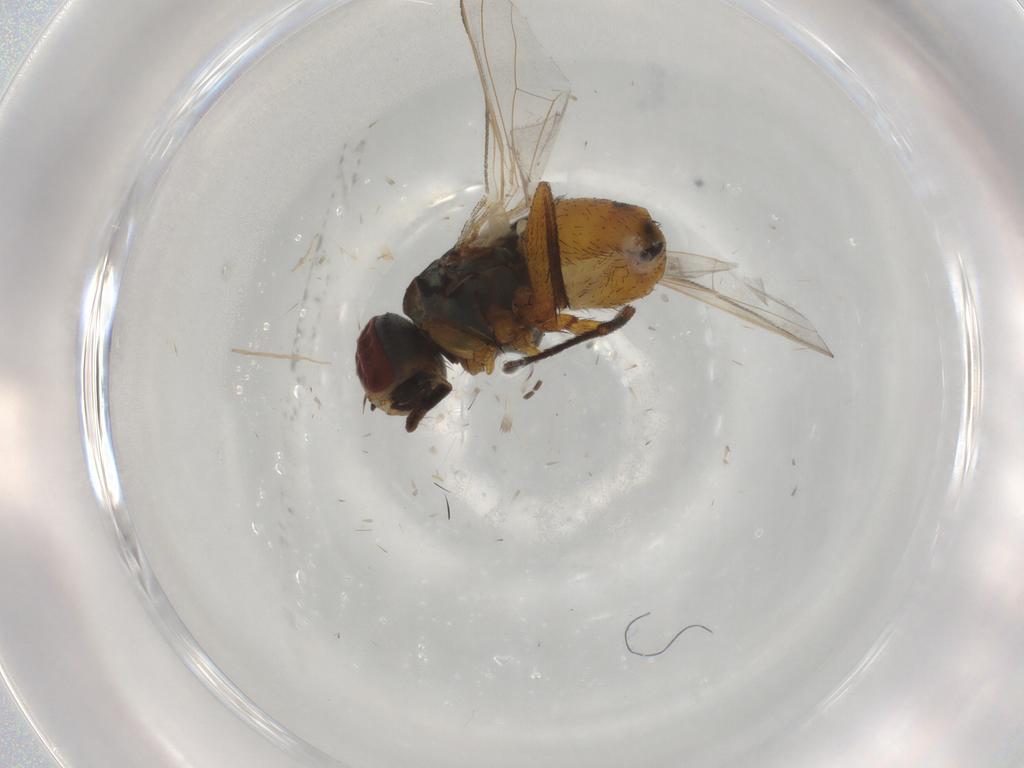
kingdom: Animalia
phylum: Arthropoda
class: Insecta
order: Diptera
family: Muscidae
